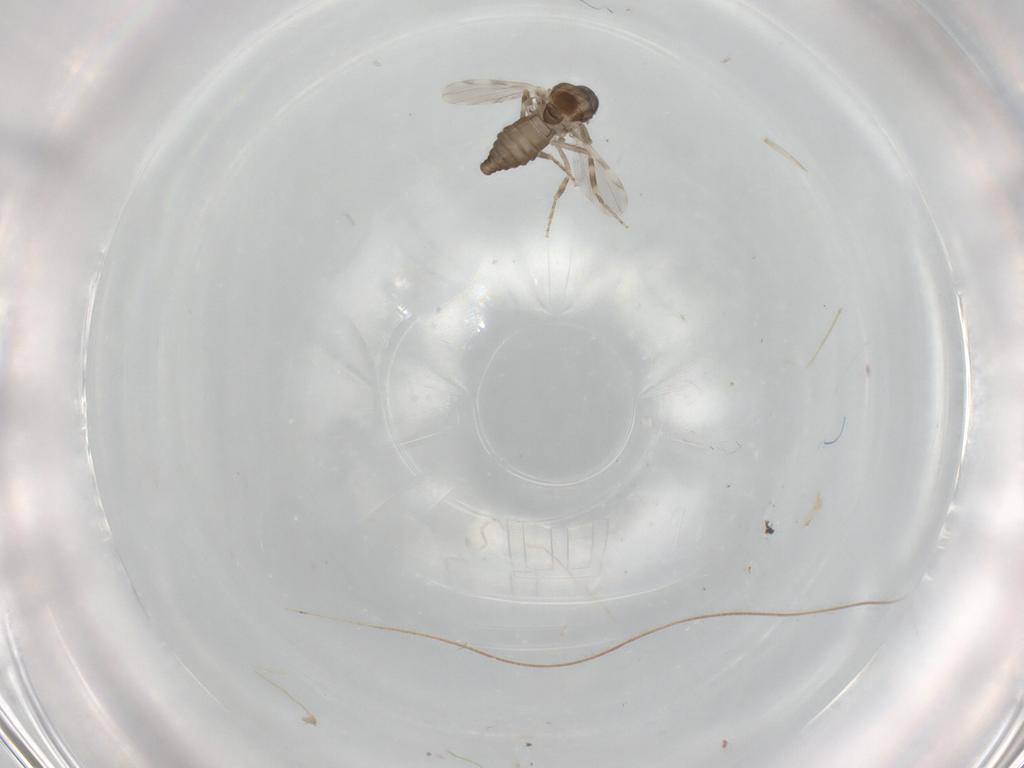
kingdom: Animalia
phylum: Arthropoda
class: Insecta
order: Diptera
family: Ceratopogonidae
